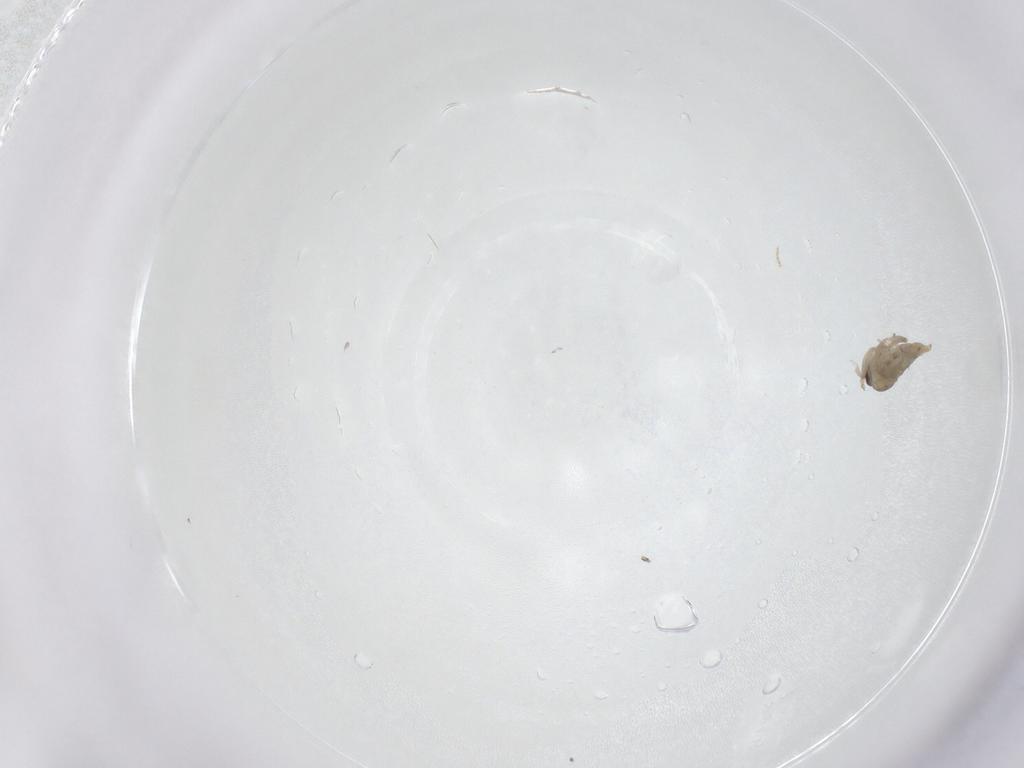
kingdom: Animalia
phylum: Arthropoda
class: Insecta
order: Diptera
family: Cecidomyiidae
